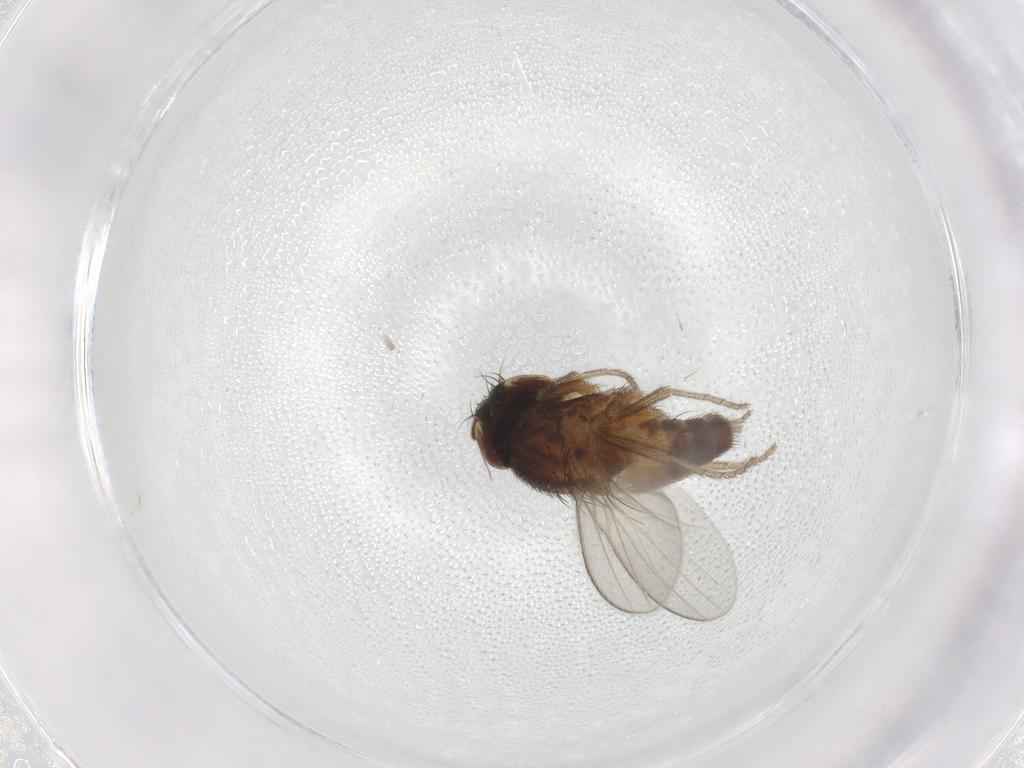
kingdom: Animalia
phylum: Arthropoda
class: Insecta
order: Diptera
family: Milichiidae
